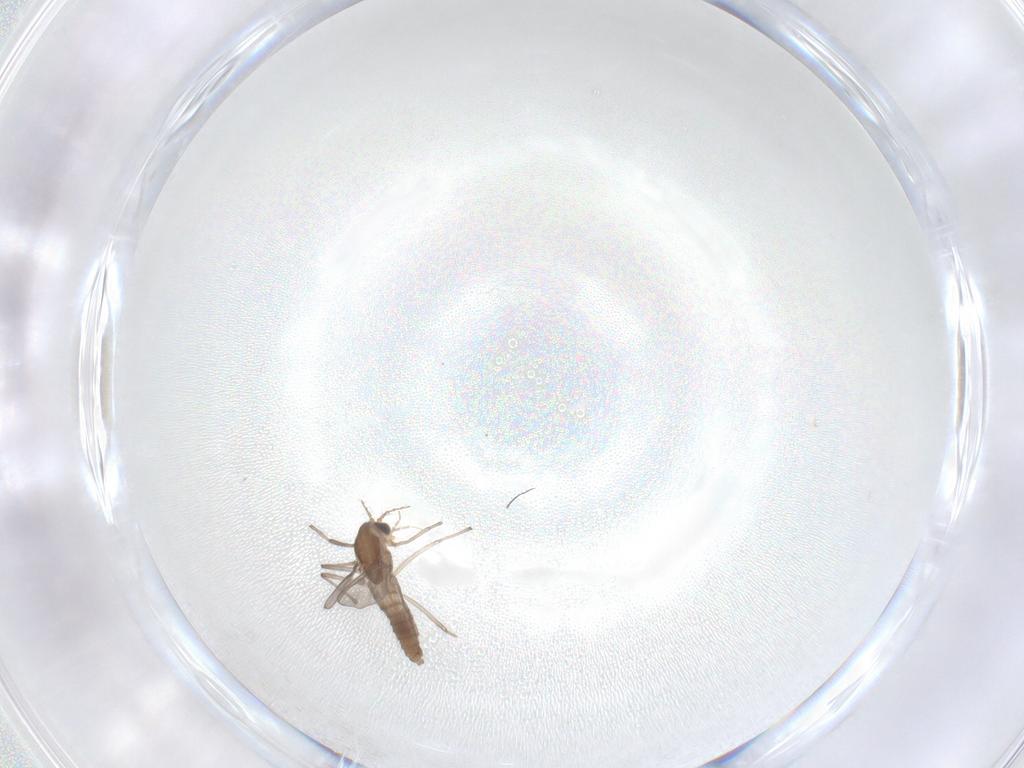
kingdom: Animalia
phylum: Arthropoda
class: Insecta
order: Diptera
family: Chironomidae
